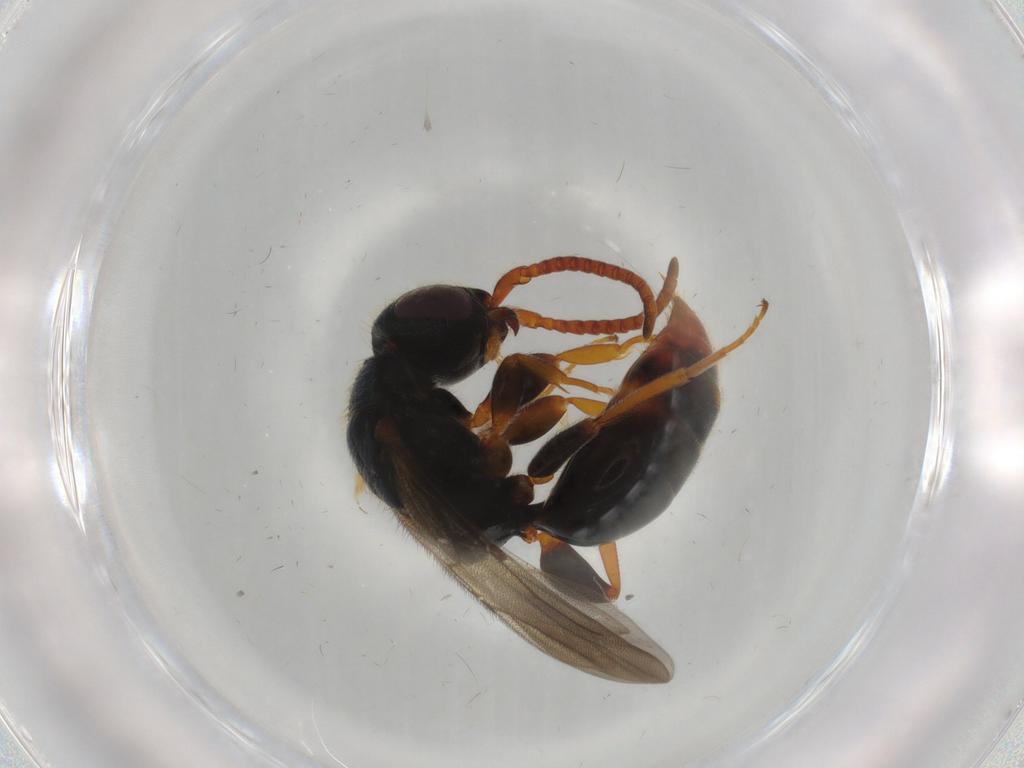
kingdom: Animalia
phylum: Arthropoda
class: Insecta
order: Hymenoptera
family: Bethylidae
